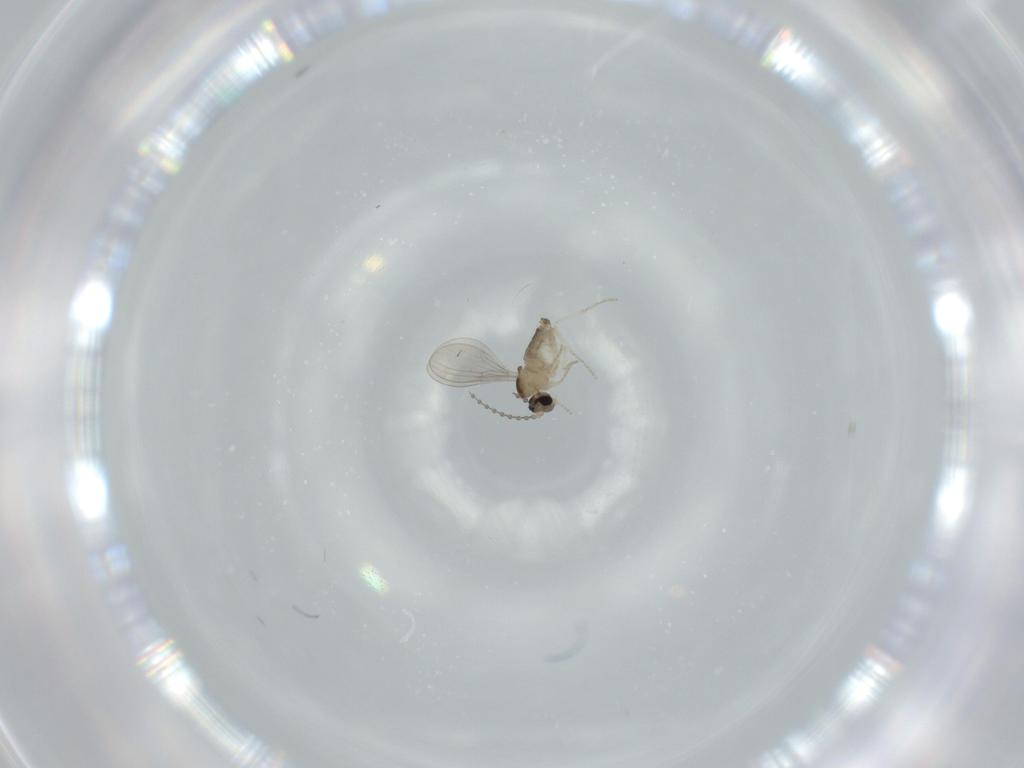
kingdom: Animalia
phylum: Arthropoda
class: Insecta
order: Diptera
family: Cecidomyiidae
